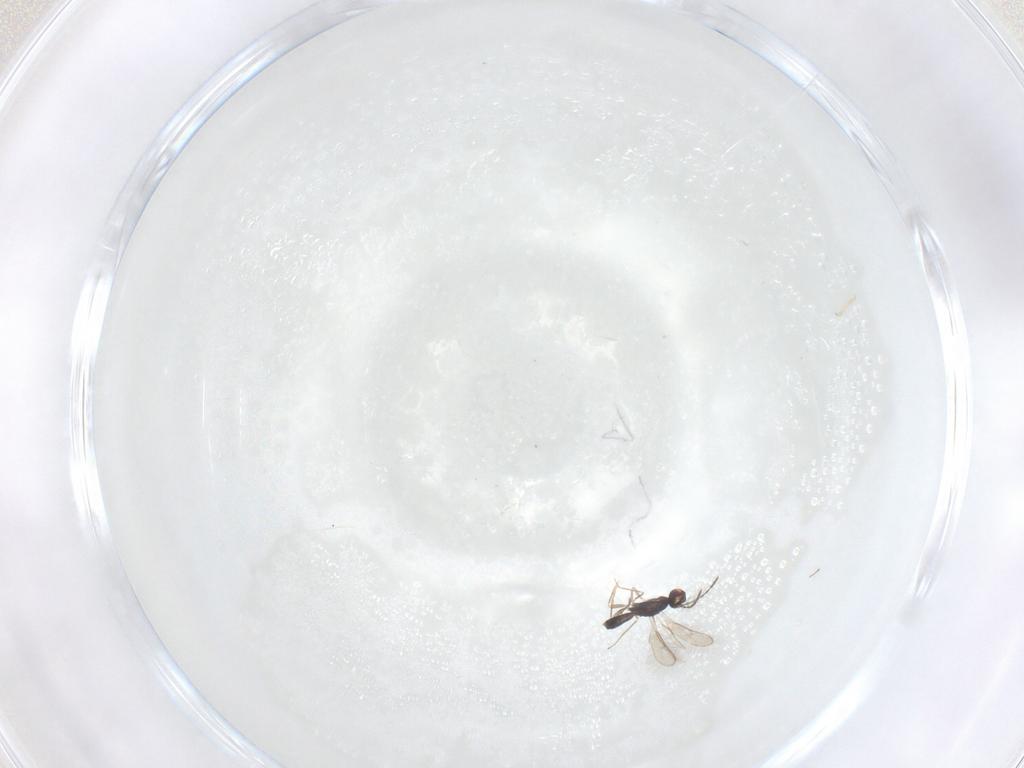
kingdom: Animalia
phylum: Arthropoda
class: Insecta
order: Hymenoptera
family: Pteromalidae
